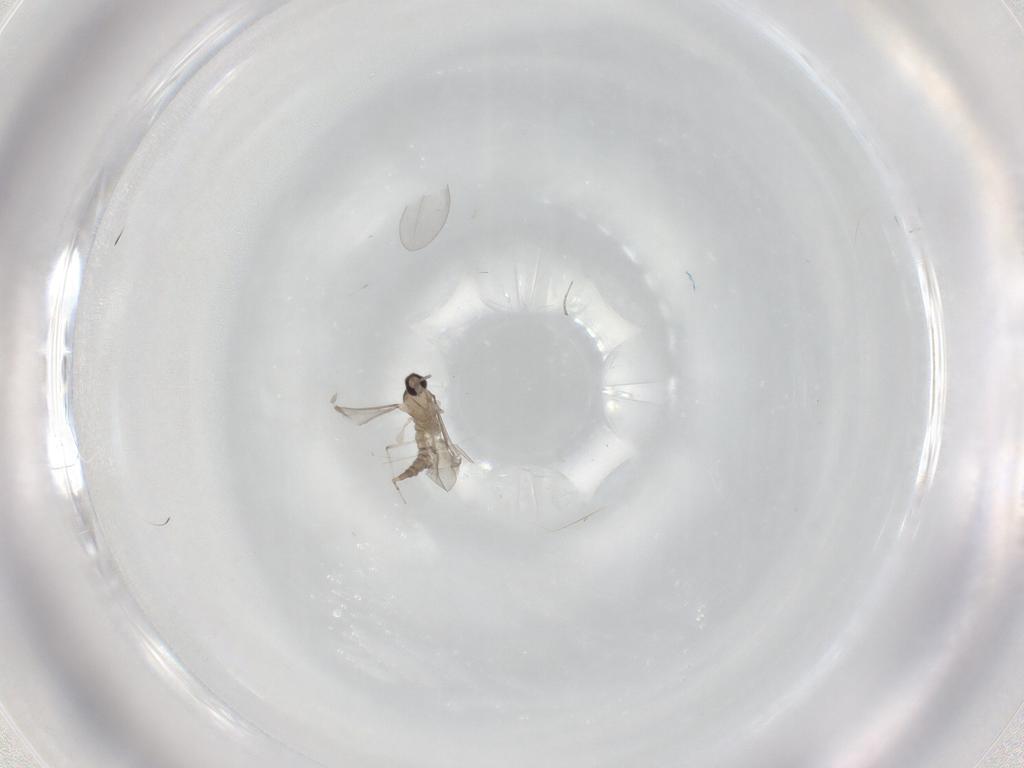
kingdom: Animalia
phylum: Arthropoda
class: Insecta
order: Diptera
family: Cecidomyiidae
